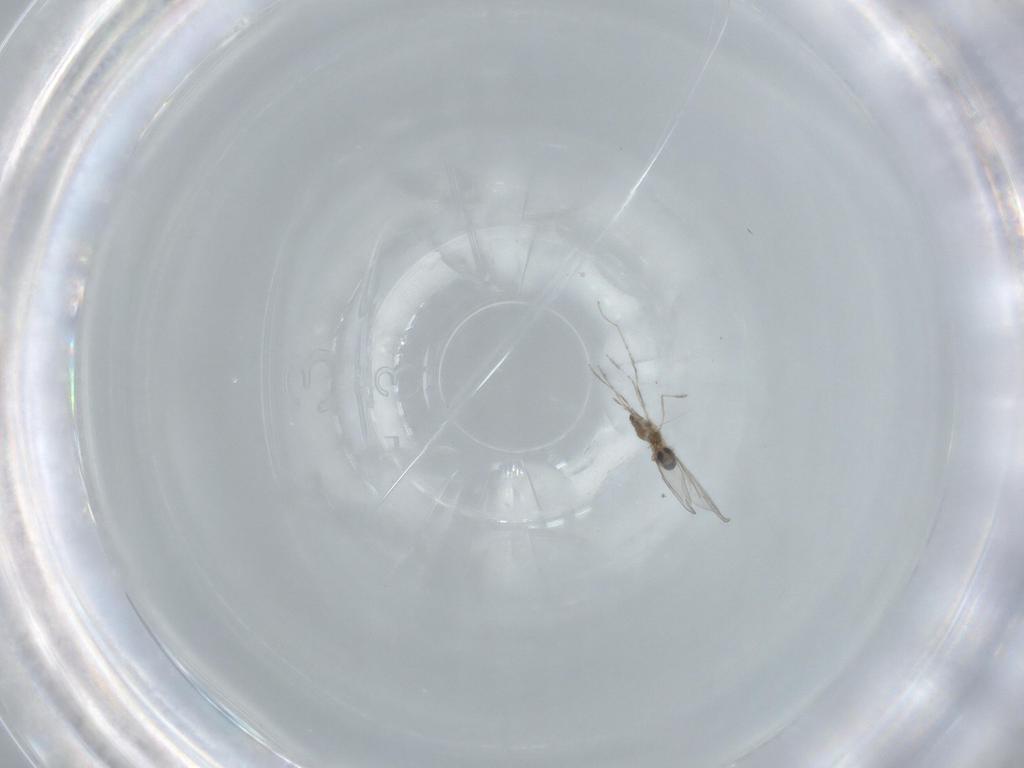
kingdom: Animalia
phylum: Arthropoda
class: Insecta
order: Diptera
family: Cecidomyiidae
